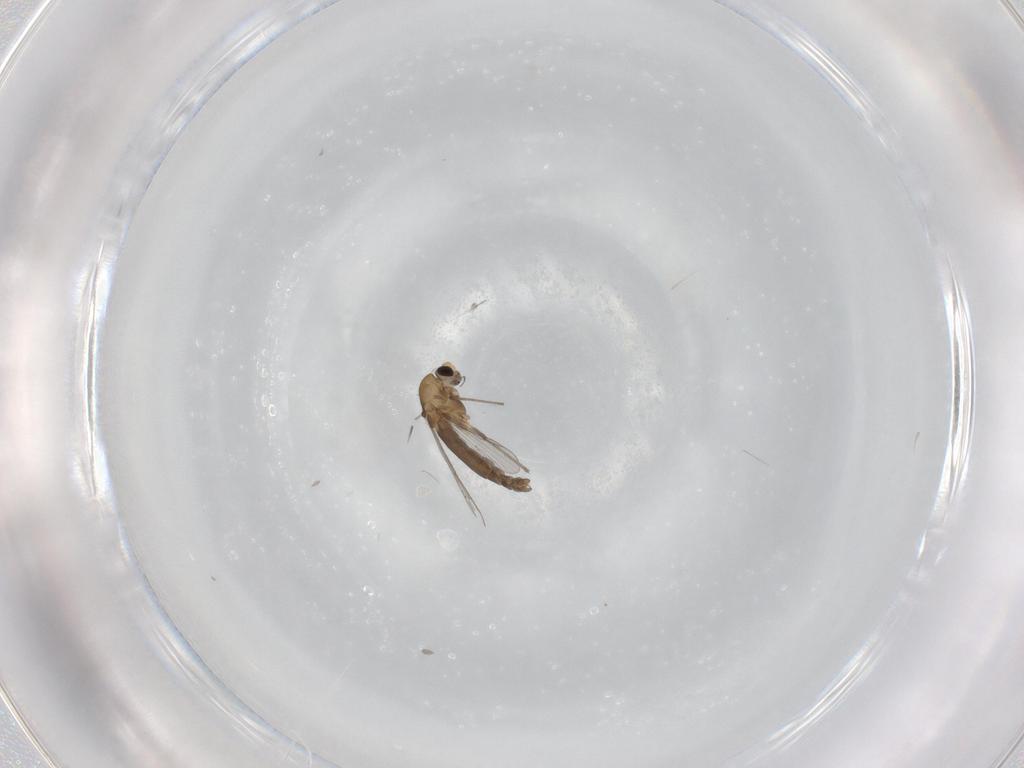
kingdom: Animalia
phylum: Arthropoda
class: Insecta
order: Diptera
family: Chironomidae
